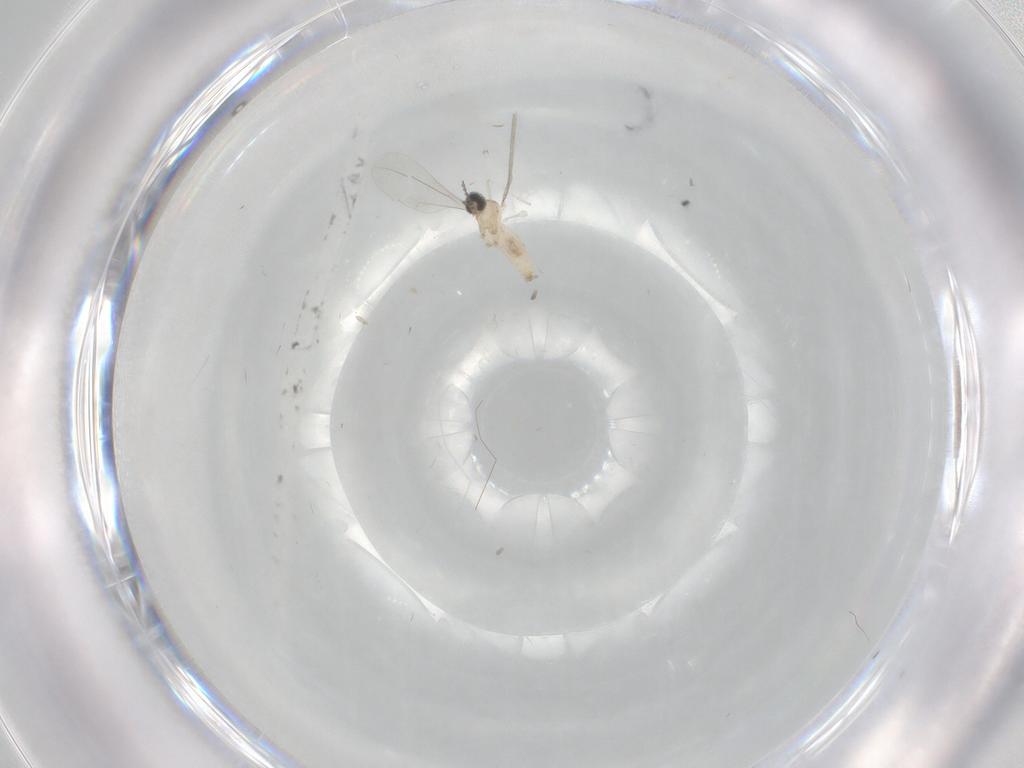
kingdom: Animalia
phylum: Arthropoda
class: Insecta
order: Diptera
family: Cecidomyiidae
